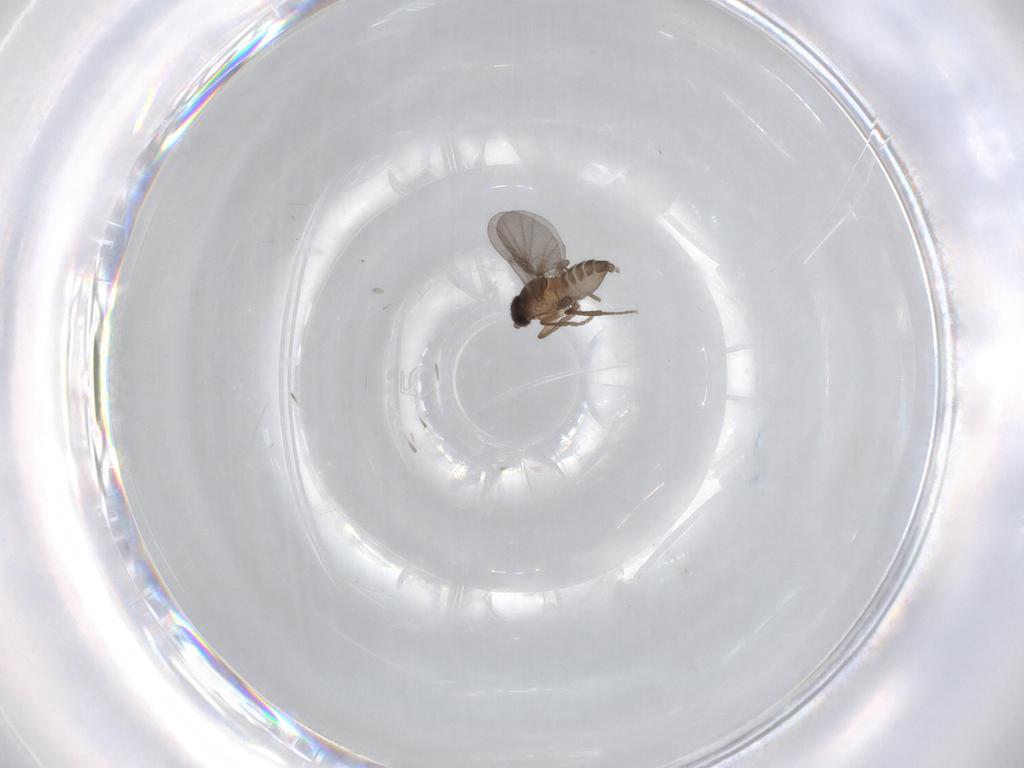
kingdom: Animalia
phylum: Arthropoda
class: Insecta
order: Diptera
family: Phoridae
